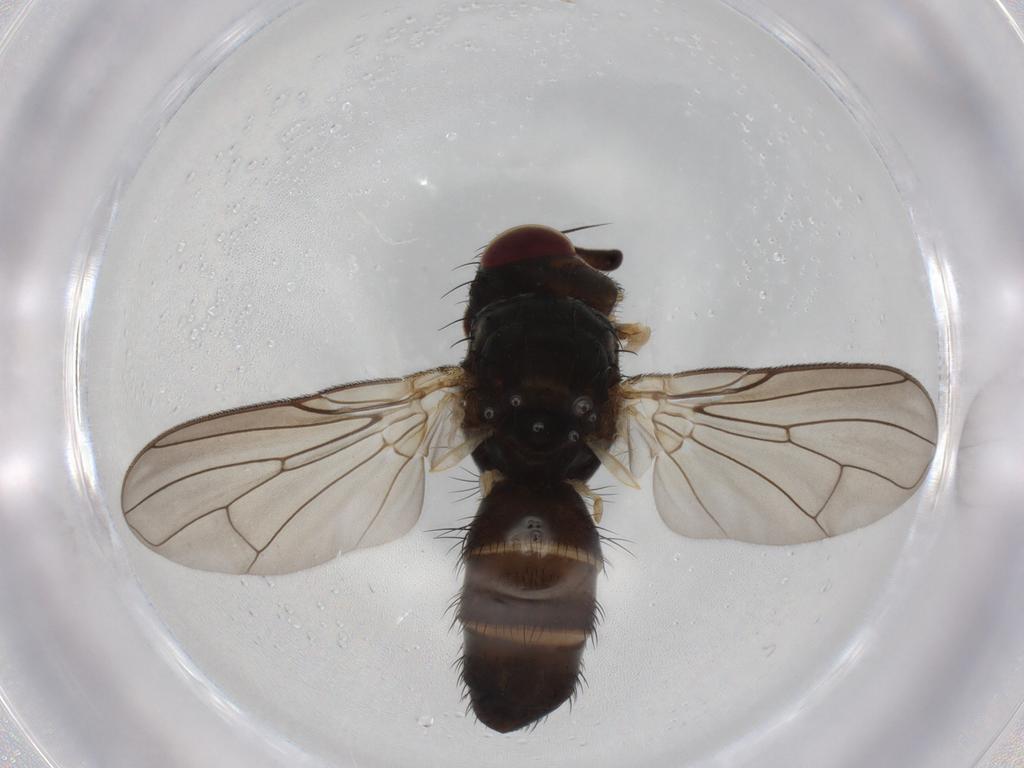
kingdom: Animalia
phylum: Arthropoda
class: Insecta
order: Diptera
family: Tachinidae
